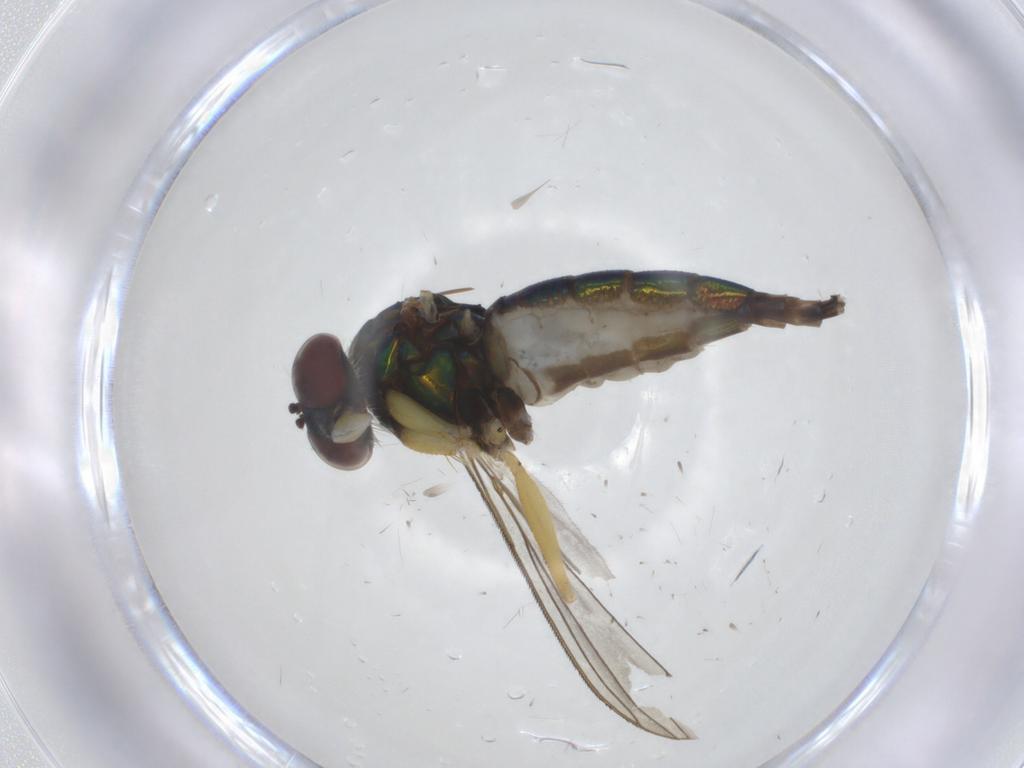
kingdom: Animalia
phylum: Arthropoda
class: Insecta
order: Diptera
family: Dolichopodidae
